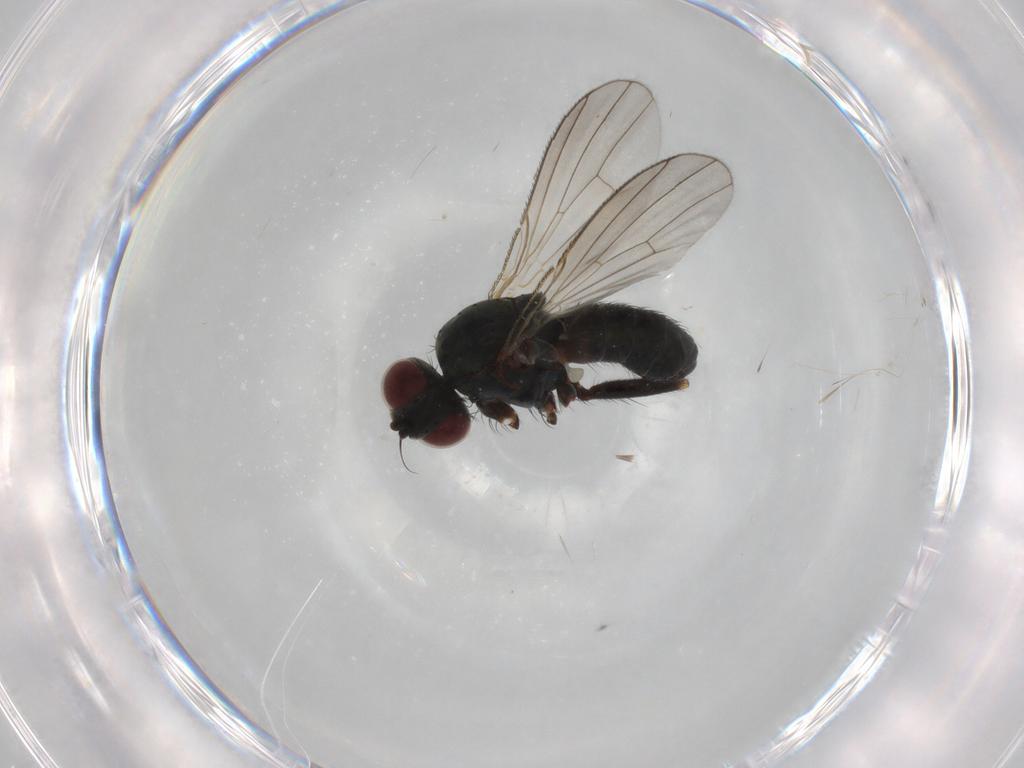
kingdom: Animalia
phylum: Arthropoda
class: Insecta
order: Diptera
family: Muscidae
